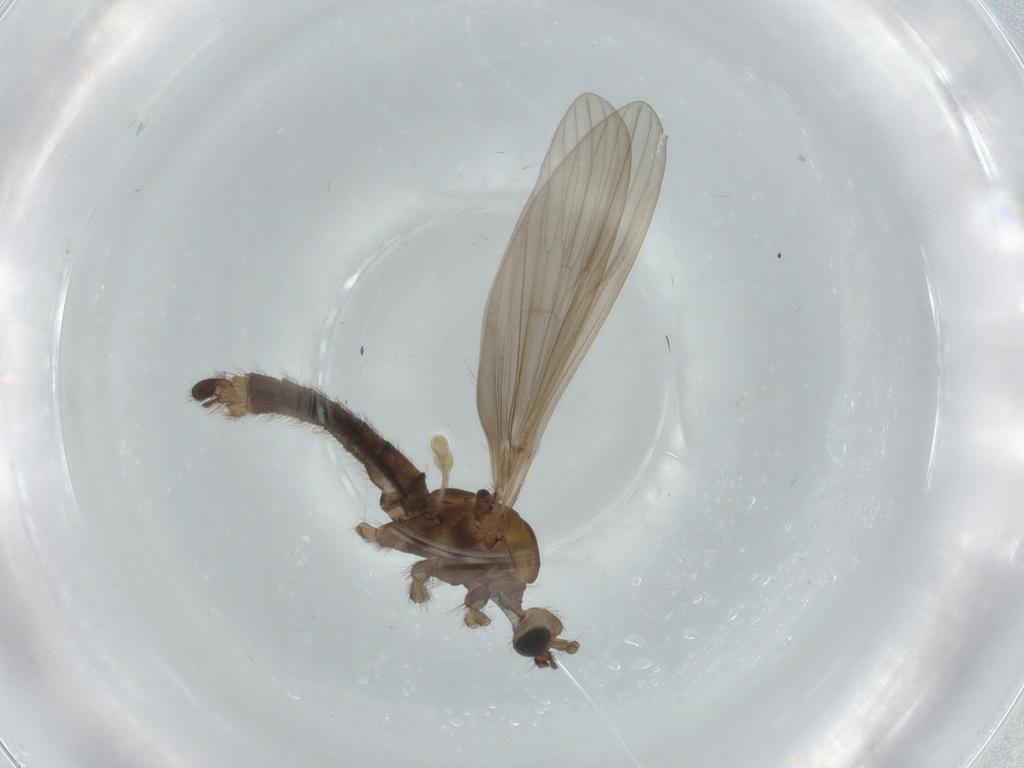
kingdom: Animalia
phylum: Arthropoda
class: Insecta
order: Diptera
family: Limoniidae
